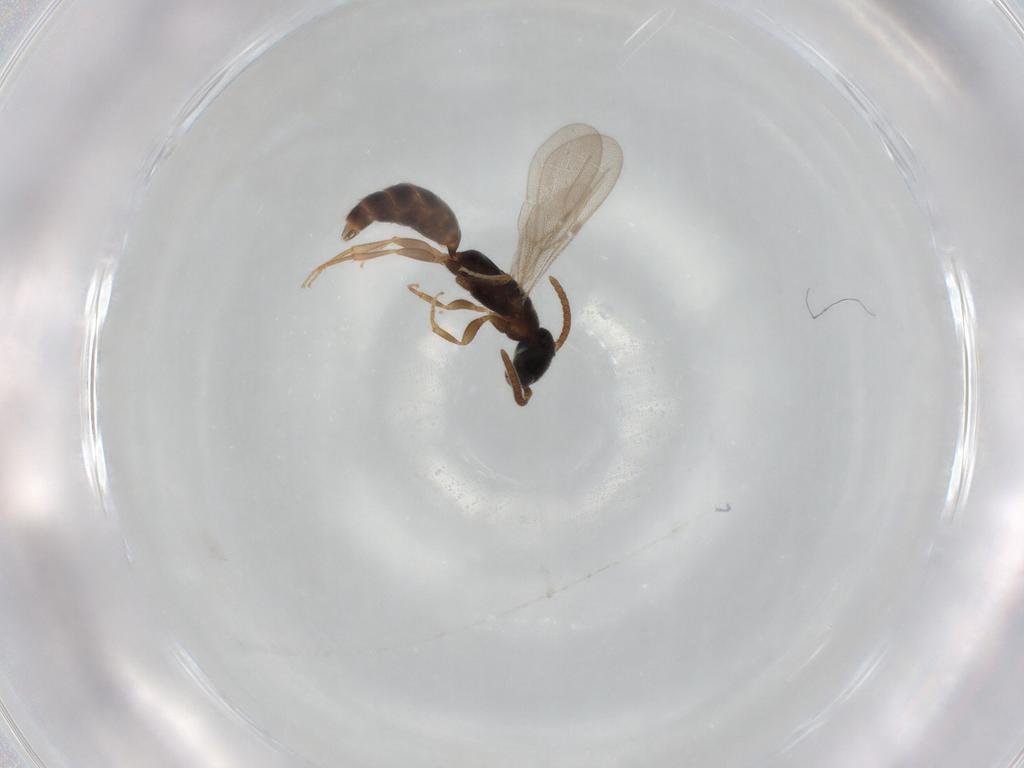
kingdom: Animalia
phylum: Arthropoda
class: Insecta
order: Hymenoptera
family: Bethylidae
